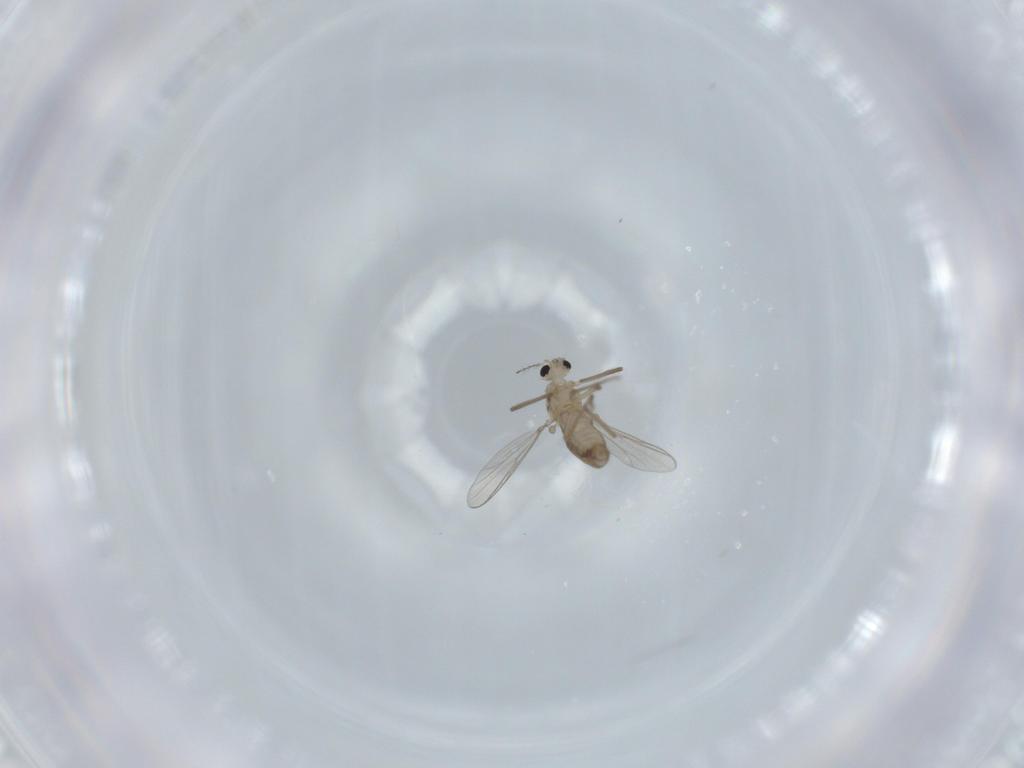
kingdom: Animalia
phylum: Arthropoda
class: Insecta
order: Diptera
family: Chironomidae
